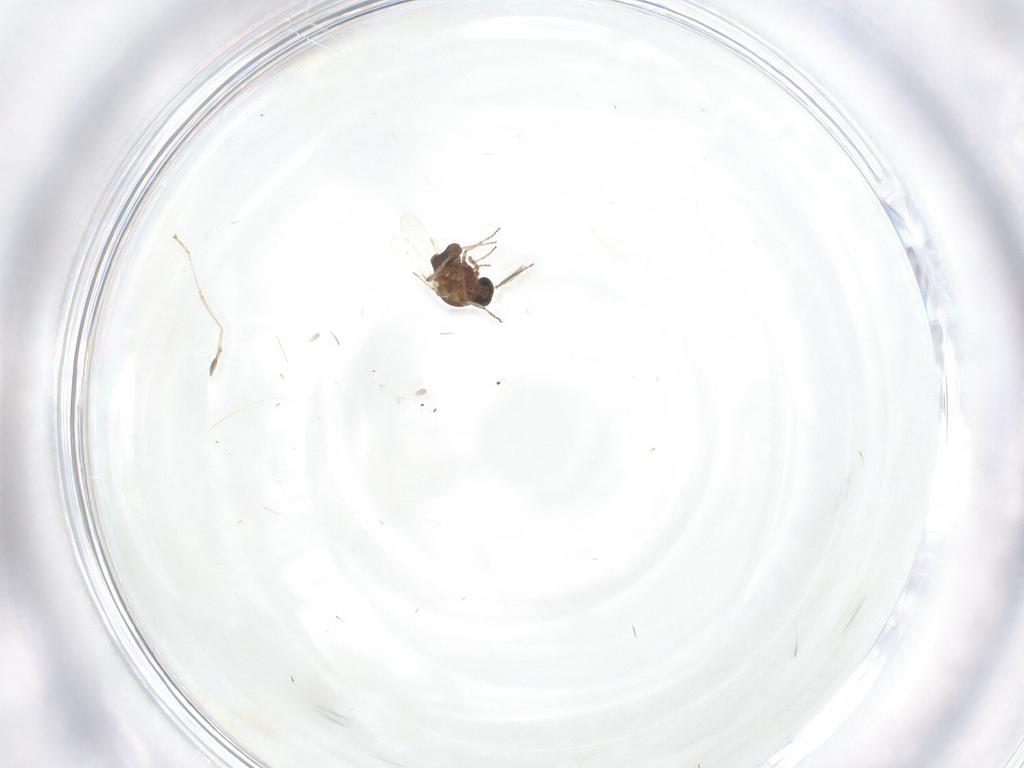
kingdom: Animalia
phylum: Arthropoda
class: Insecta
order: Diptera
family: Ceratopogonidae
